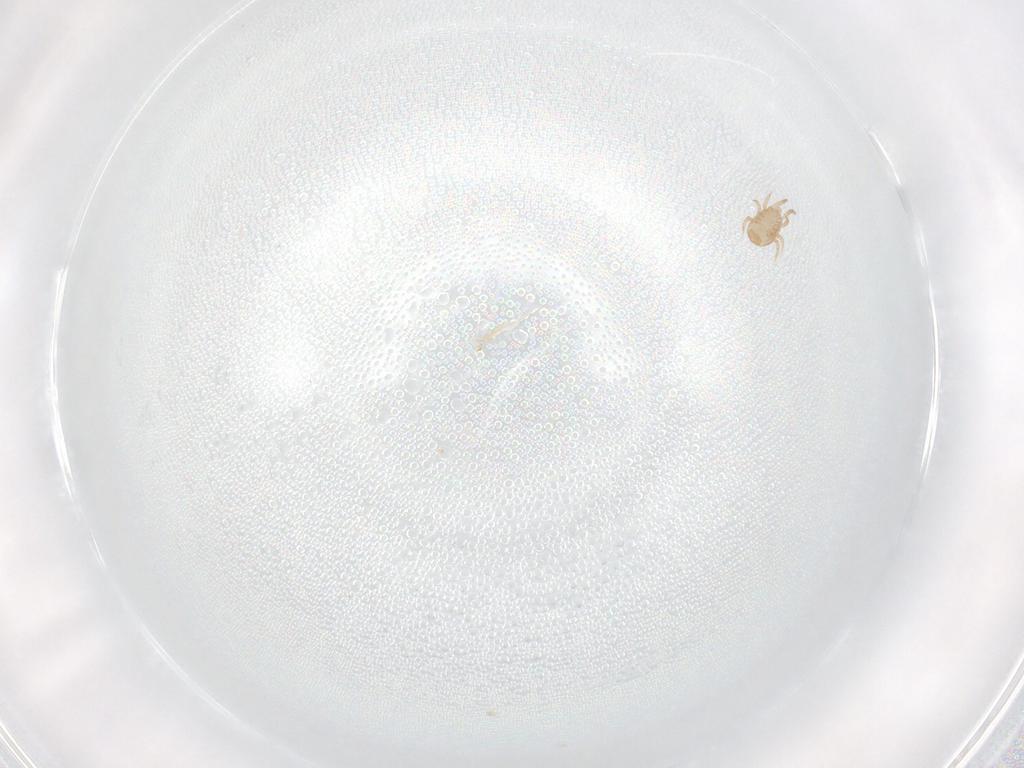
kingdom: Animalia
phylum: Arthropoda
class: Arachnida
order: Mesostigmata
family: Ameroseiidae
